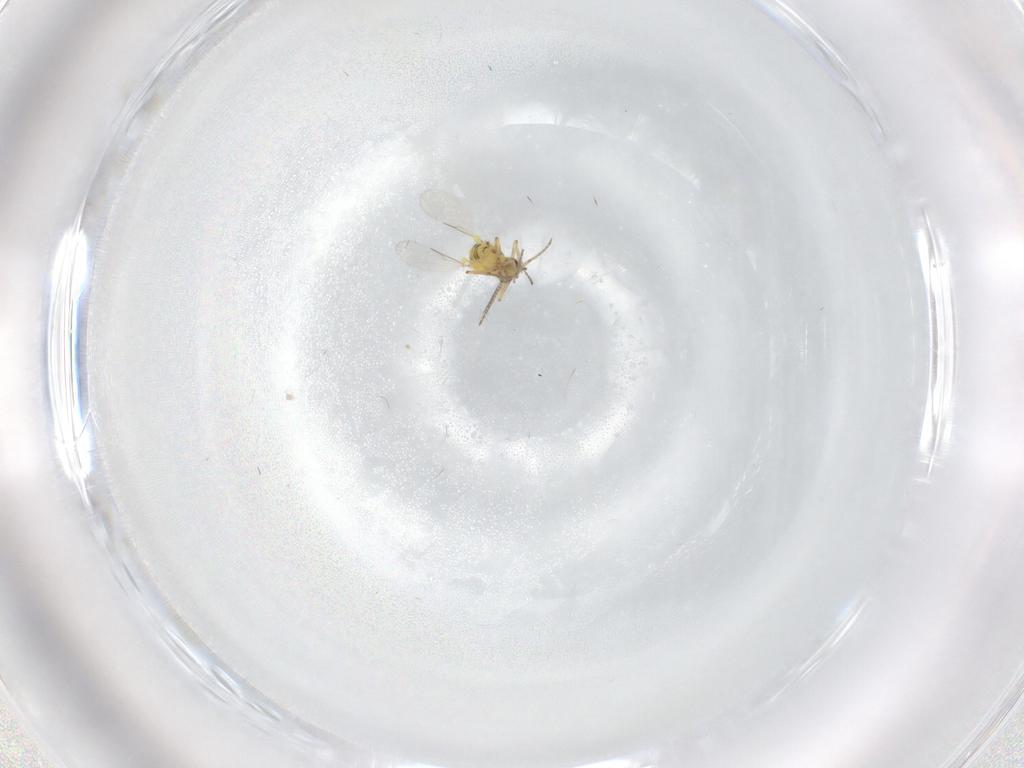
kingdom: Animalia
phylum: Arthropoda
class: Insecta
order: Diptera
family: Ceratopogonidae
